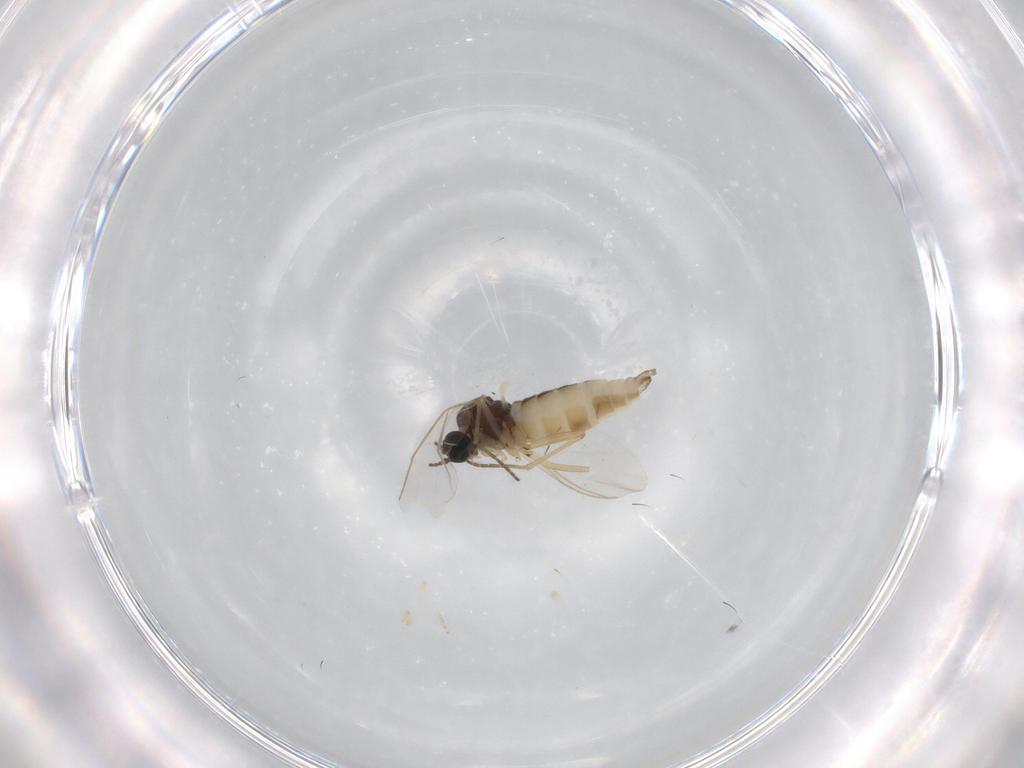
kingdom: Animalia
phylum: Arthropoda
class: Insecta
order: Diptera
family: Sciaridae
